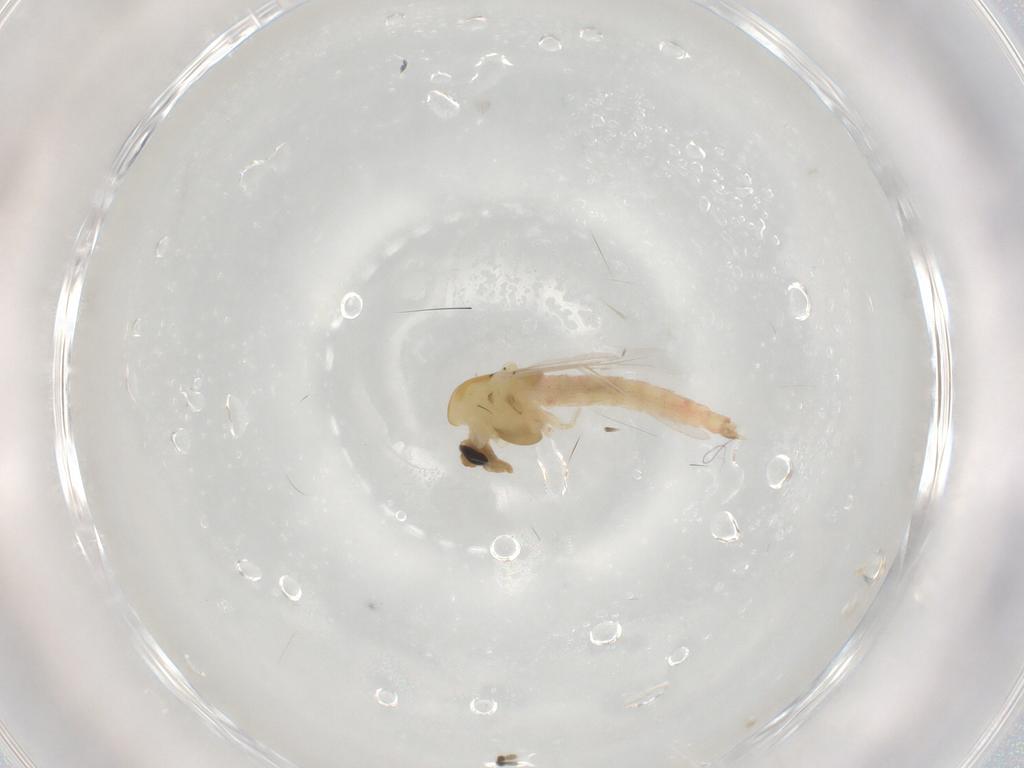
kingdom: Animalia
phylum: Arthropoda
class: Insecta
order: Diptera
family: Chironomidae
